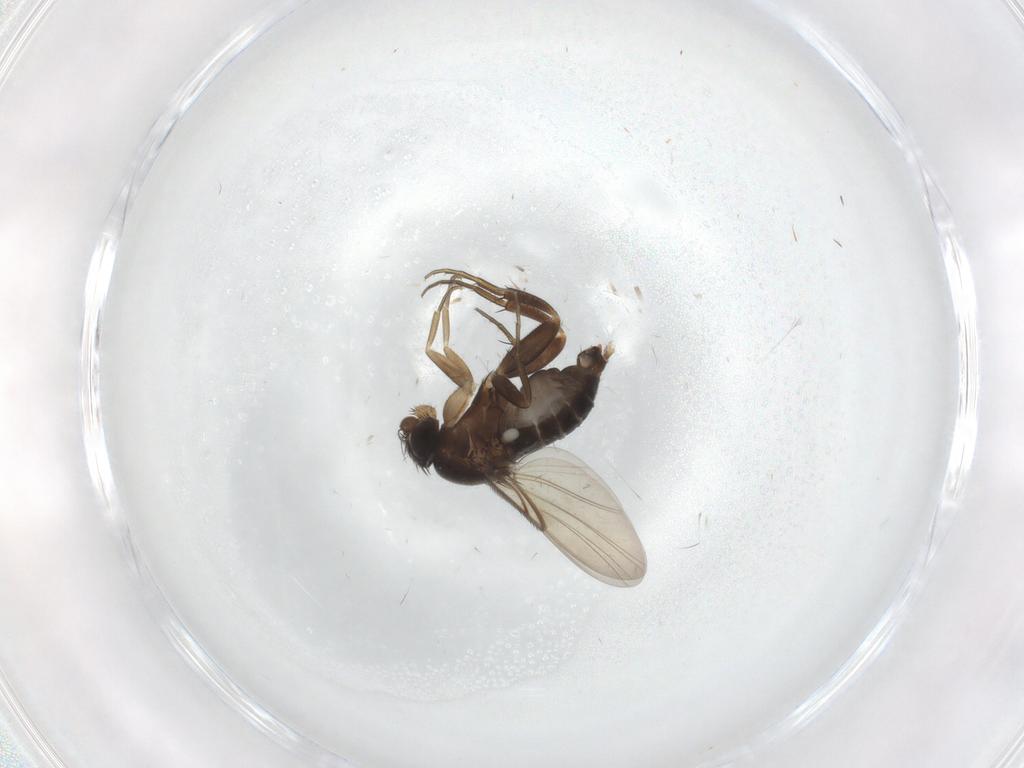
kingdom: Animalia
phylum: Arthropoda
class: Insecta
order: Diptera
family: Phoridae
